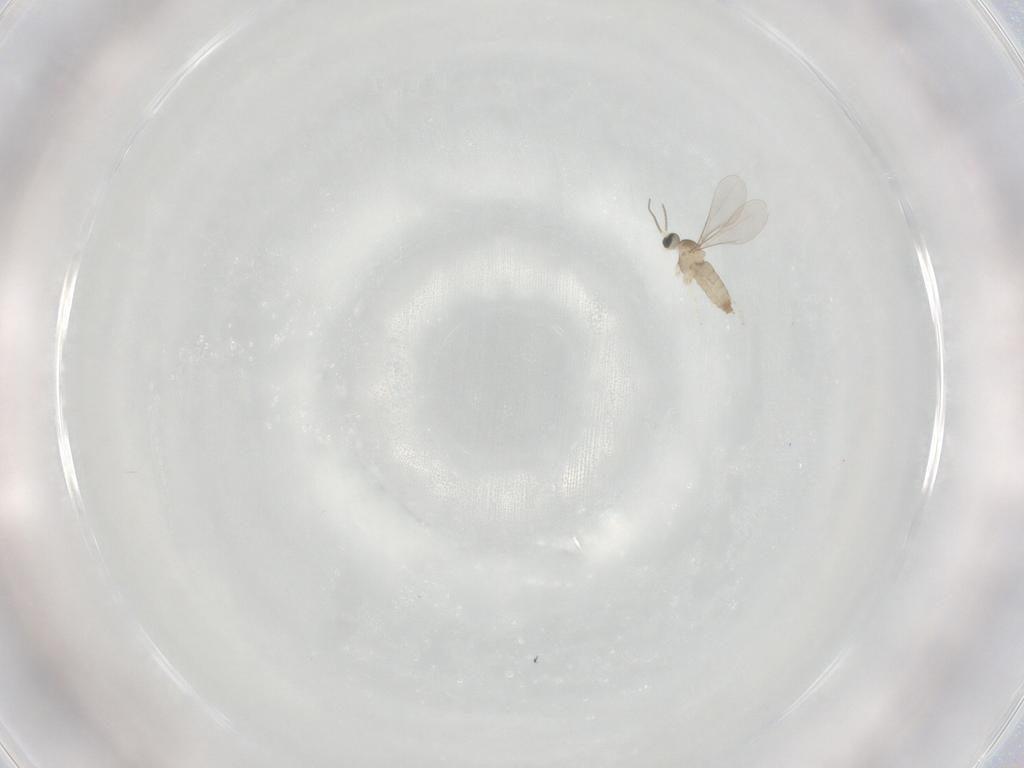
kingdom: Animalia
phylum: Arthropoda
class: Insecta
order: Diptera
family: Cecidomyiidae
